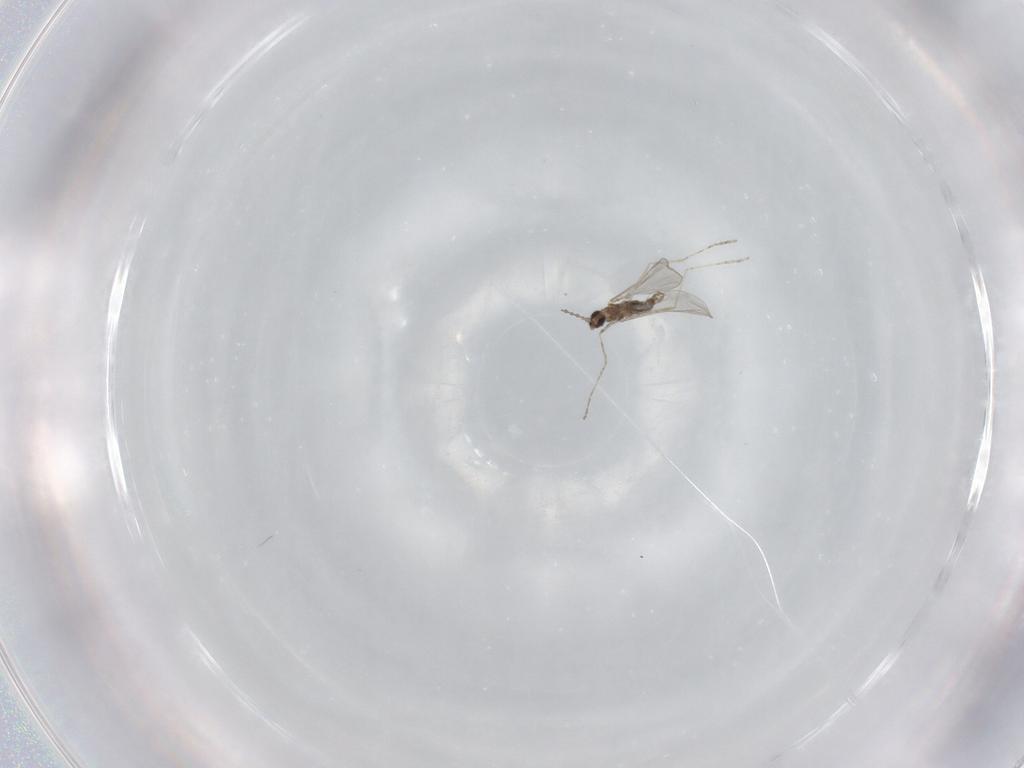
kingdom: Animalia
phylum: Arthropoda
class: Insecta
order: Diptera
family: Cecidomyiidae
